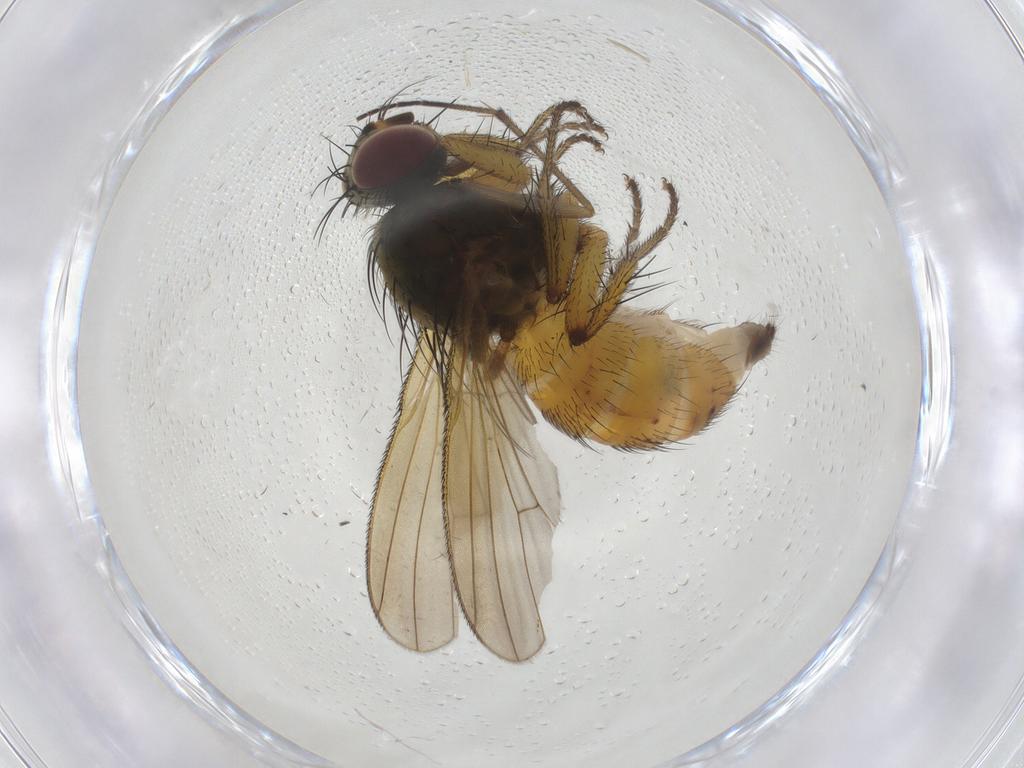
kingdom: Animalia
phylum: Arthropoda
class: Insecta
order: Diptera
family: Muscidae
